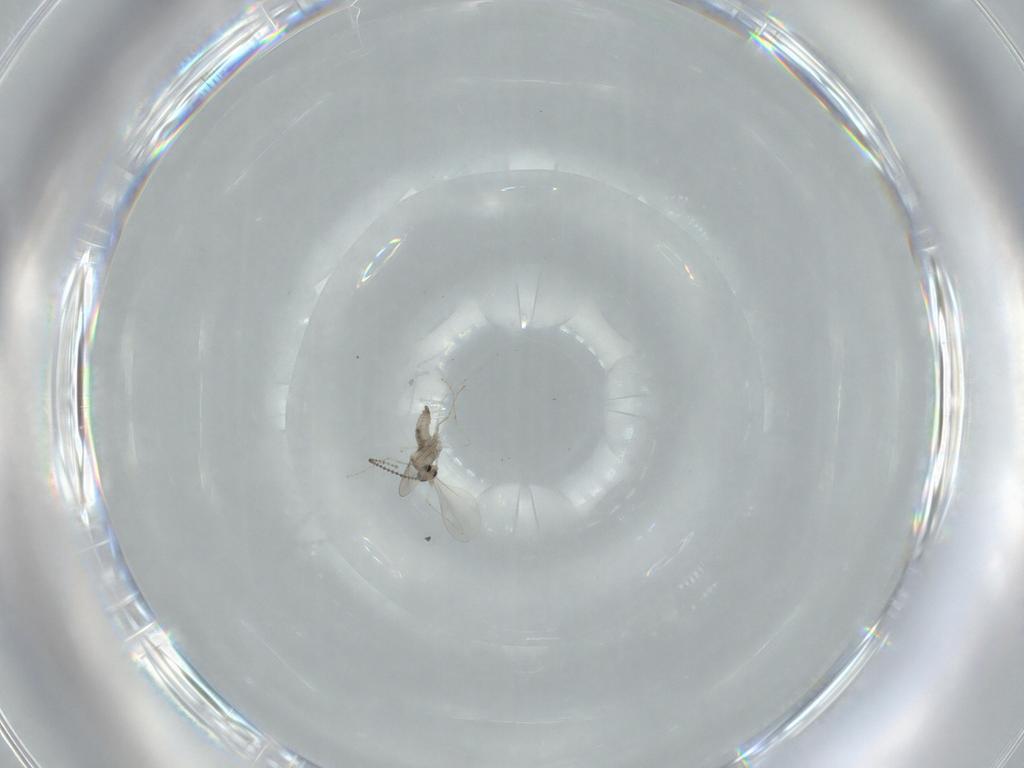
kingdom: Animalia
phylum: Arthropoda
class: Insecta
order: Diptera
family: Cecidomyiidae
